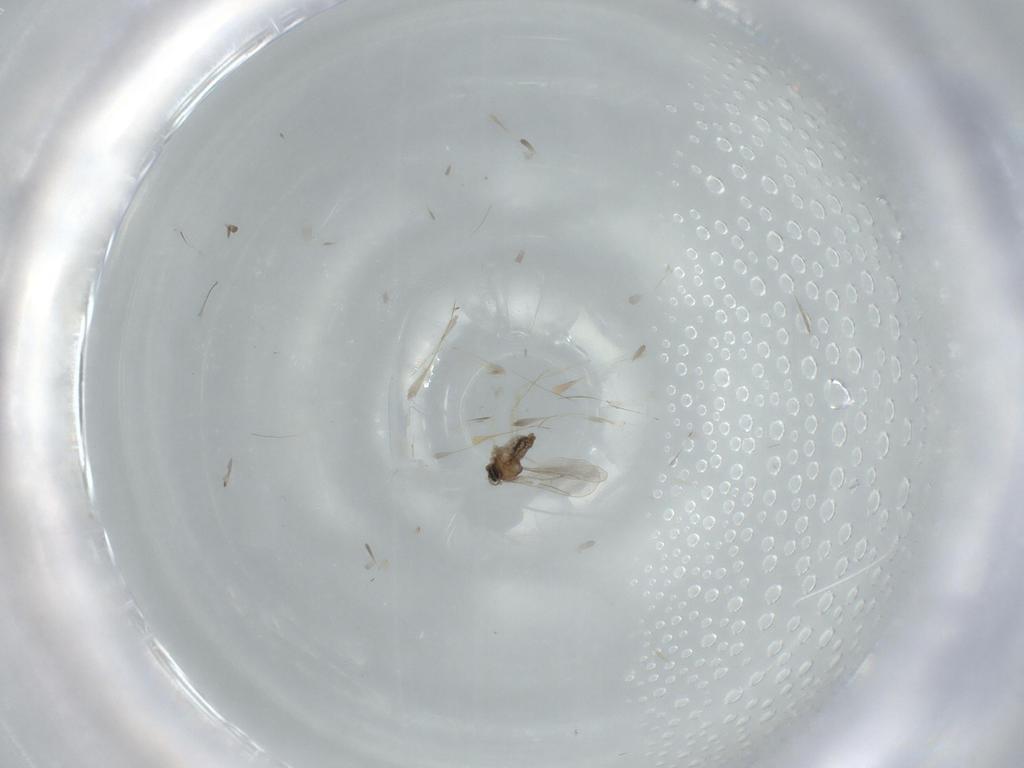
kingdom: Animalia
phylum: Arthropoda
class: Insecta
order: Diptera
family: Cecidomyiidae
